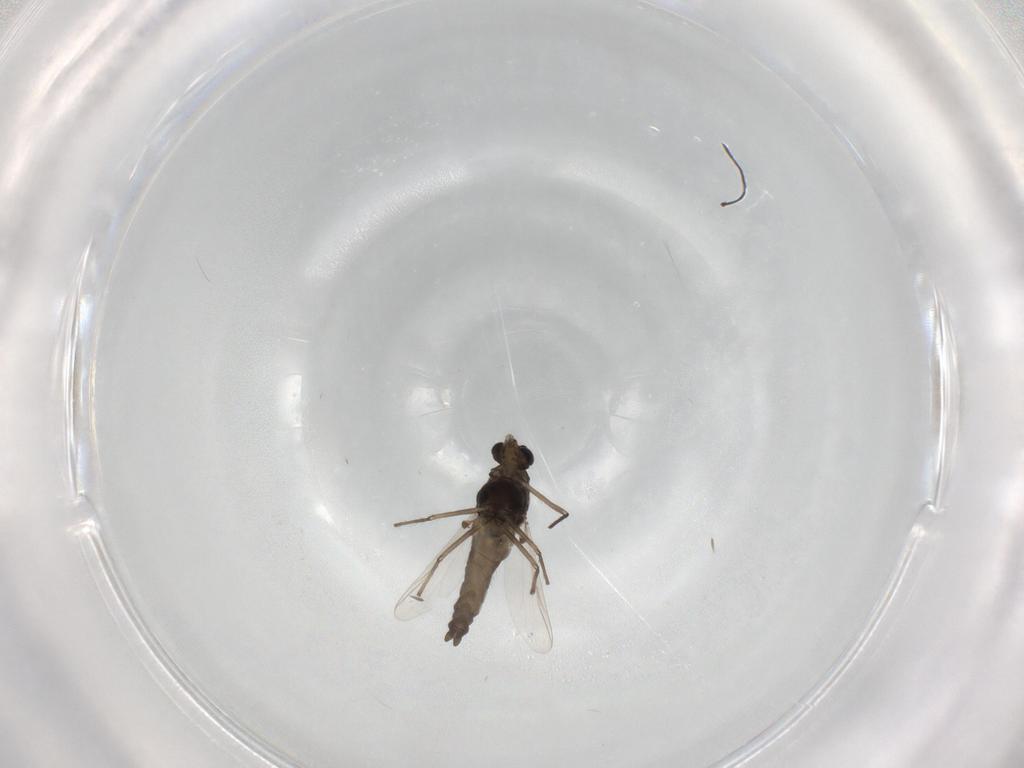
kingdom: Animalia
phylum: Arthropoda
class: Insecta
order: Diptera
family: Chironomidae
